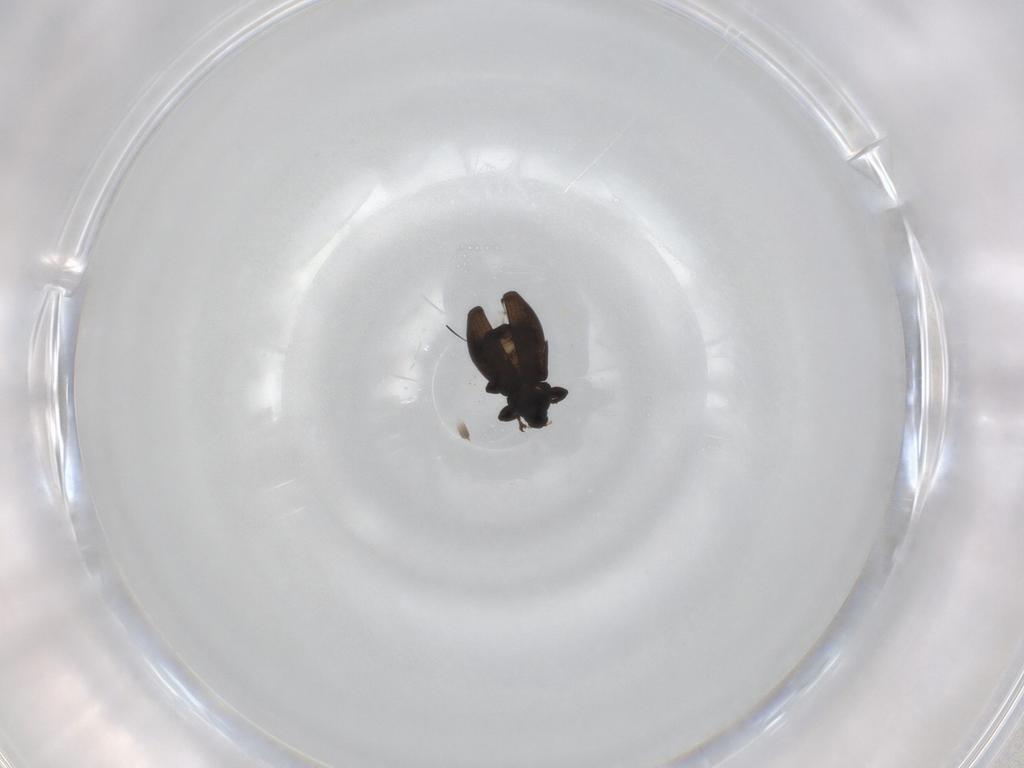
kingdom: Animalia
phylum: Arthropoda
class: Insecta
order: Coleoptera
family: Curculionidae
